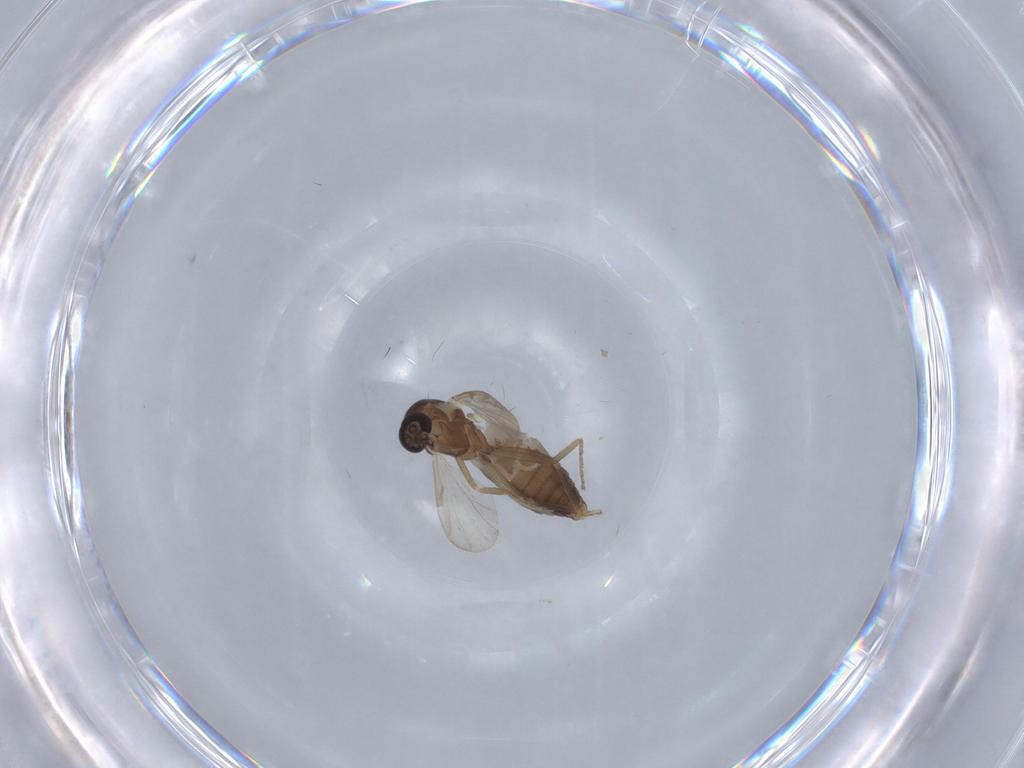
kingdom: Animalia
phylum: Arthropoda
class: Insecta
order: Diptera
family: Ceratopogonidae
